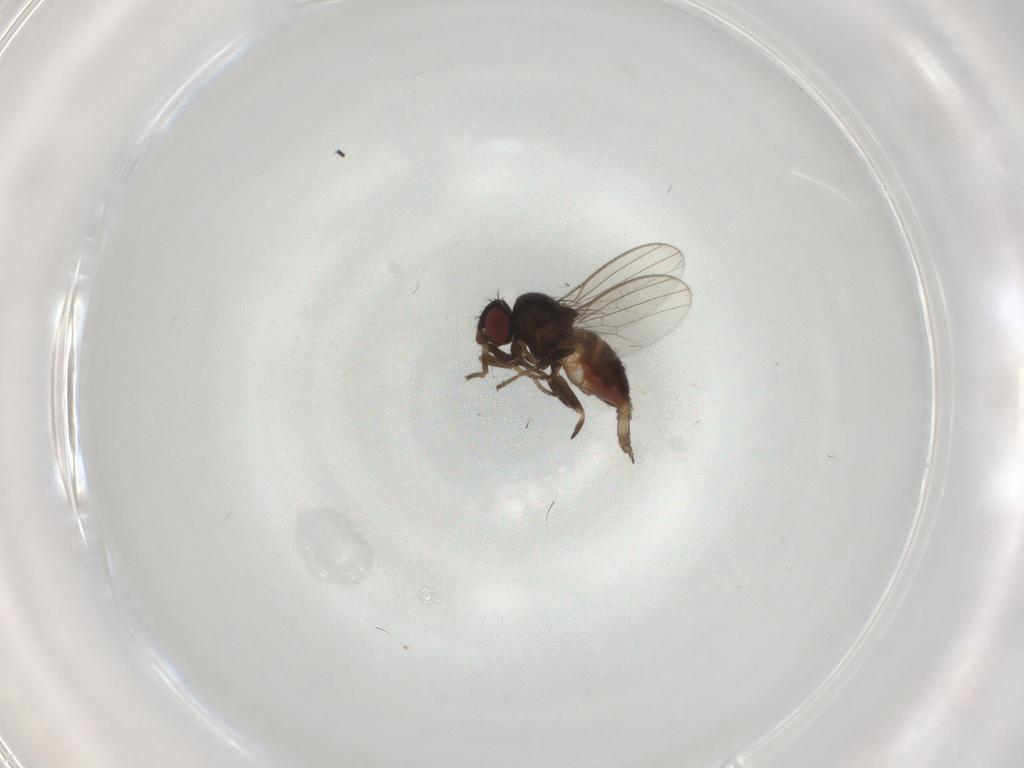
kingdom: Animalia
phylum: Arthropoda
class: Insecta
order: Diptera
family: Milichiidae
